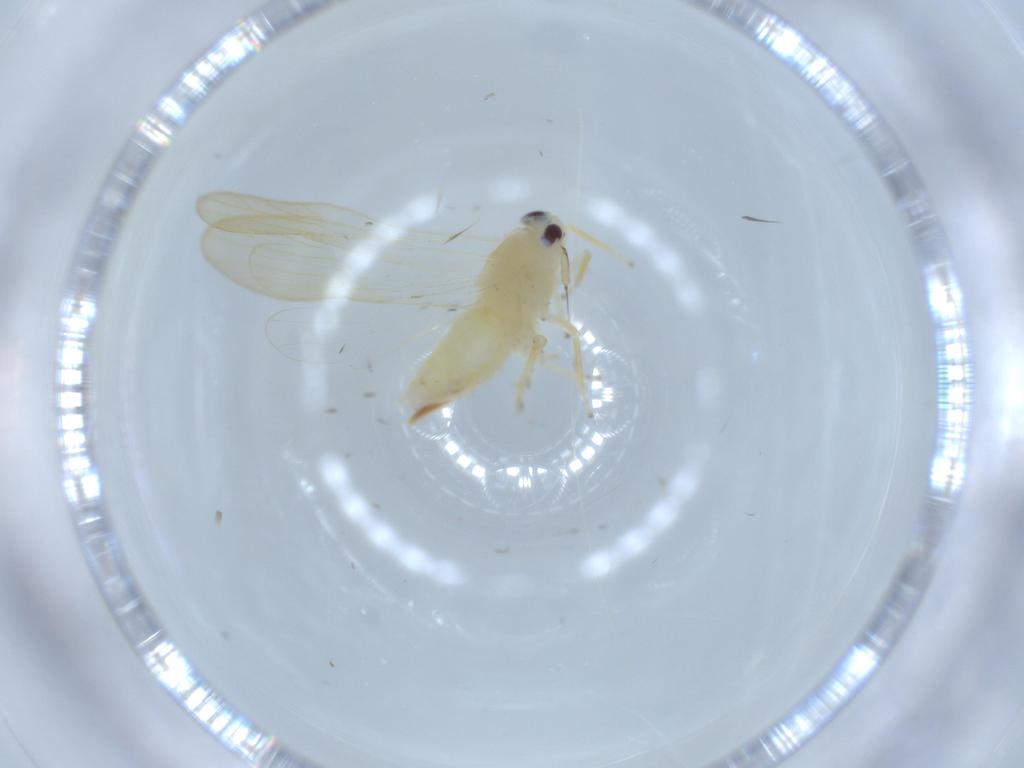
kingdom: Animalia
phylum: Arthropoda
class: Insecta
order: Hemiptera
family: Delphacidae
